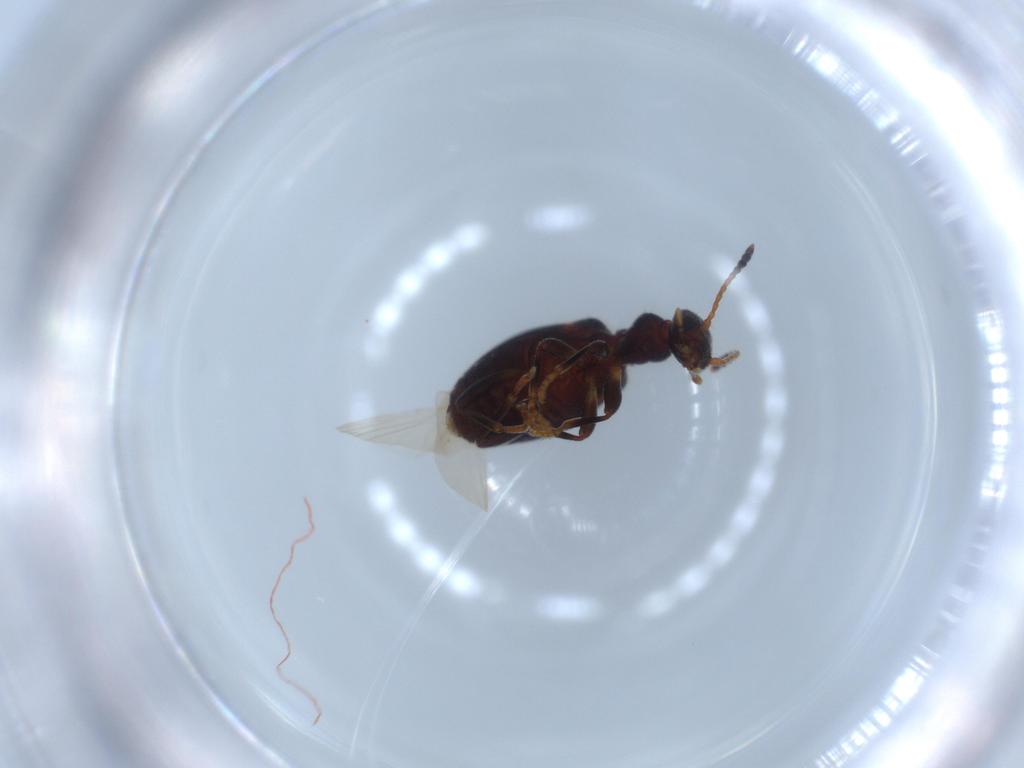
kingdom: Animalia
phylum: Arthropoda
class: Insecta
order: Coleoptera
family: Anthicidae
